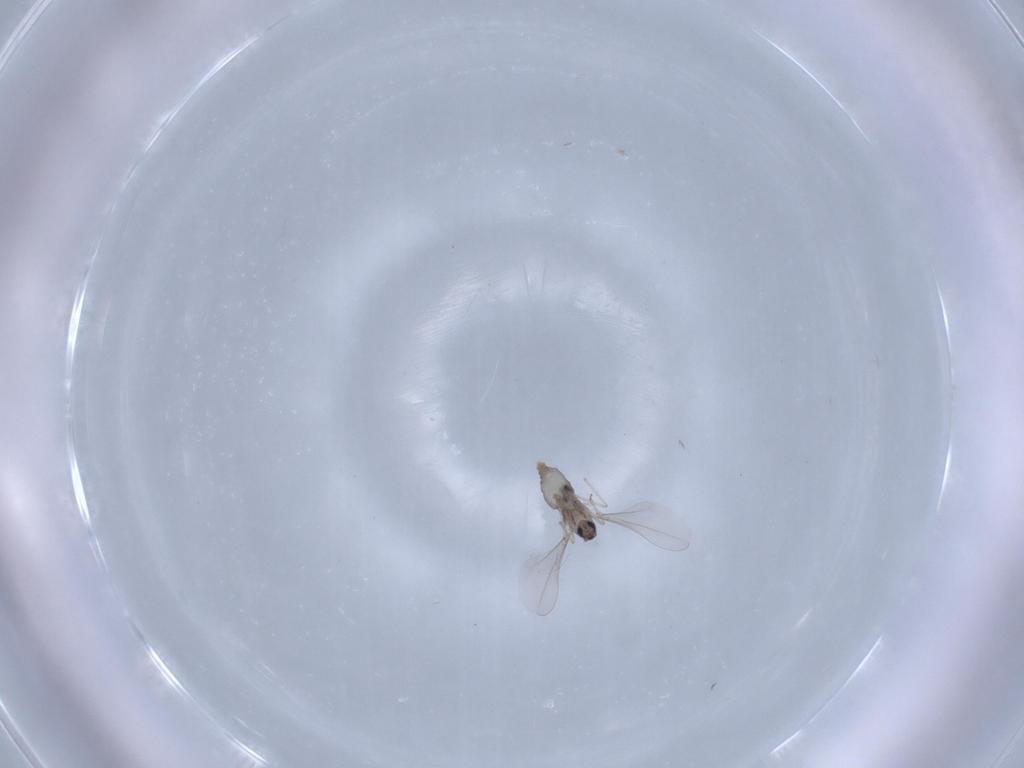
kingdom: Animalia
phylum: Arthropoda
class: Insecta
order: Diptera
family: Cecidomyiidae
